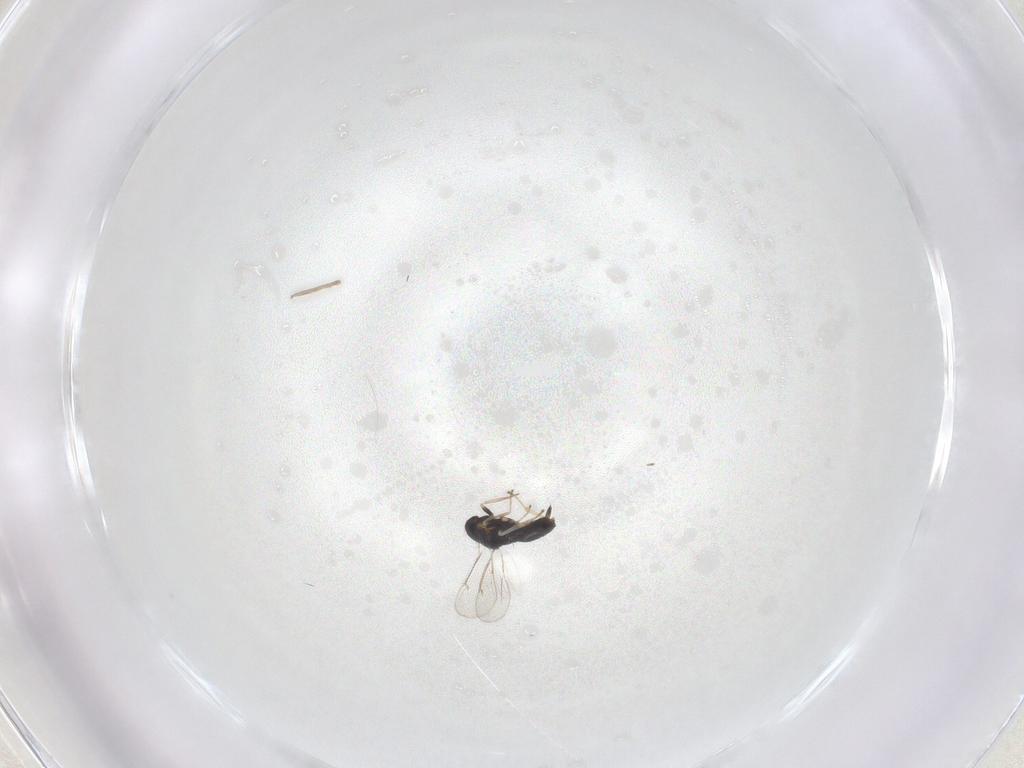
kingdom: Animalia
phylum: Arthropoda
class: Insecta
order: Hymenoptera
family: Eulophidae
